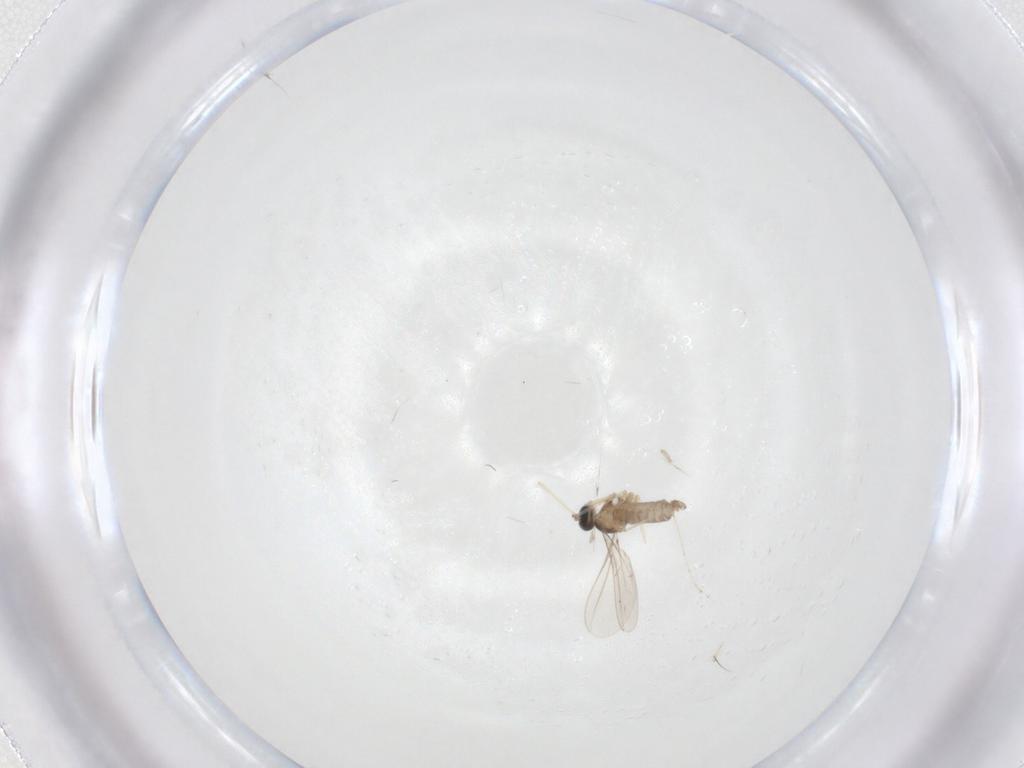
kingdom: Animalia
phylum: Arthropoda
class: Insecta
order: Diptera
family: Cecidomyiidae
